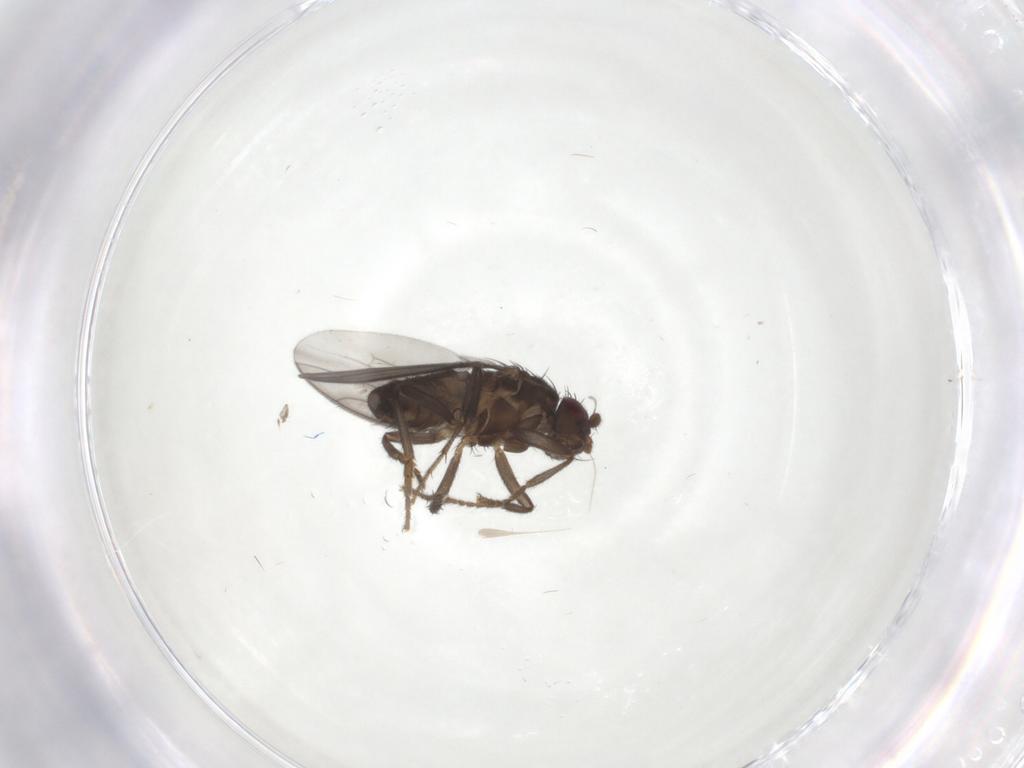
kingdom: Animalia
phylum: Arthropoda
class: Insecta
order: Diptera
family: Sphaeroceridae
